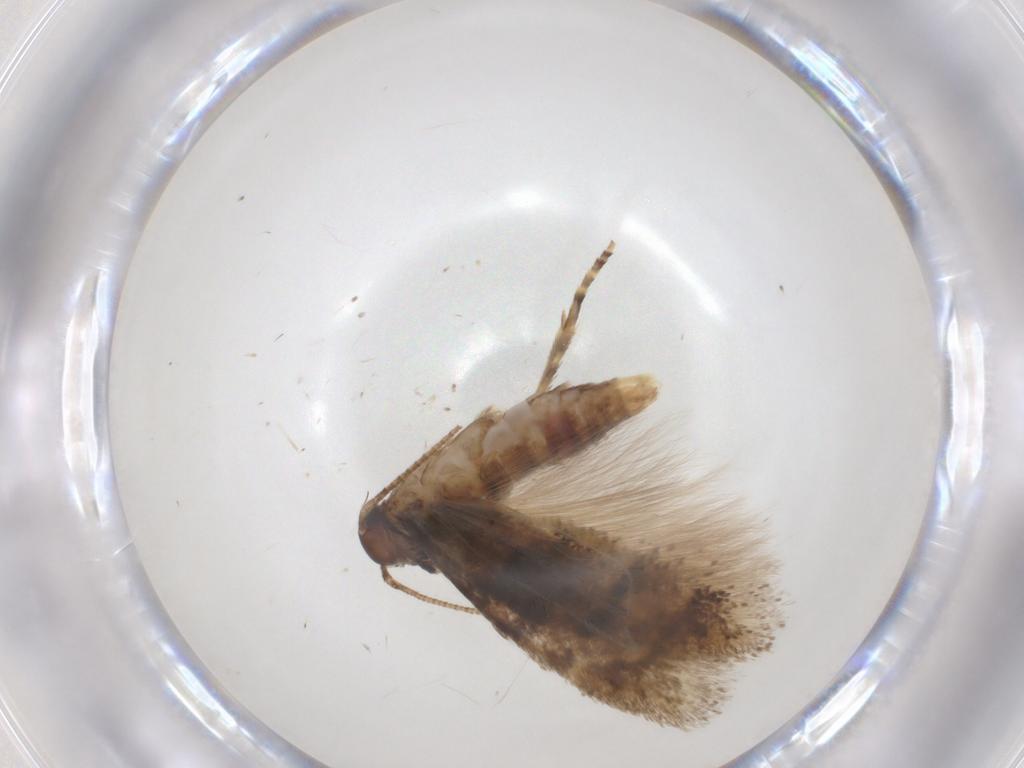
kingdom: Animalia
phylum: Arthropoda
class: Insecta
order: Lepidoptera
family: Gelechiidae
